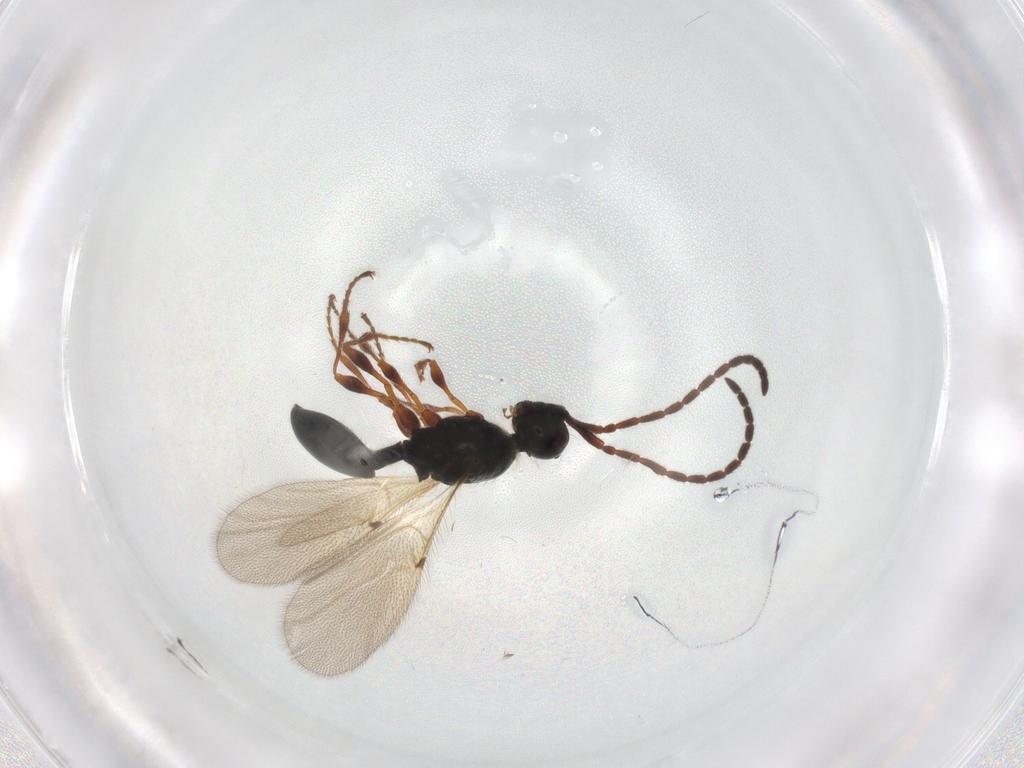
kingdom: Animalia
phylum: Arthropoda
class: Insecta
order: Hymenoptera
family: Diapriidae
